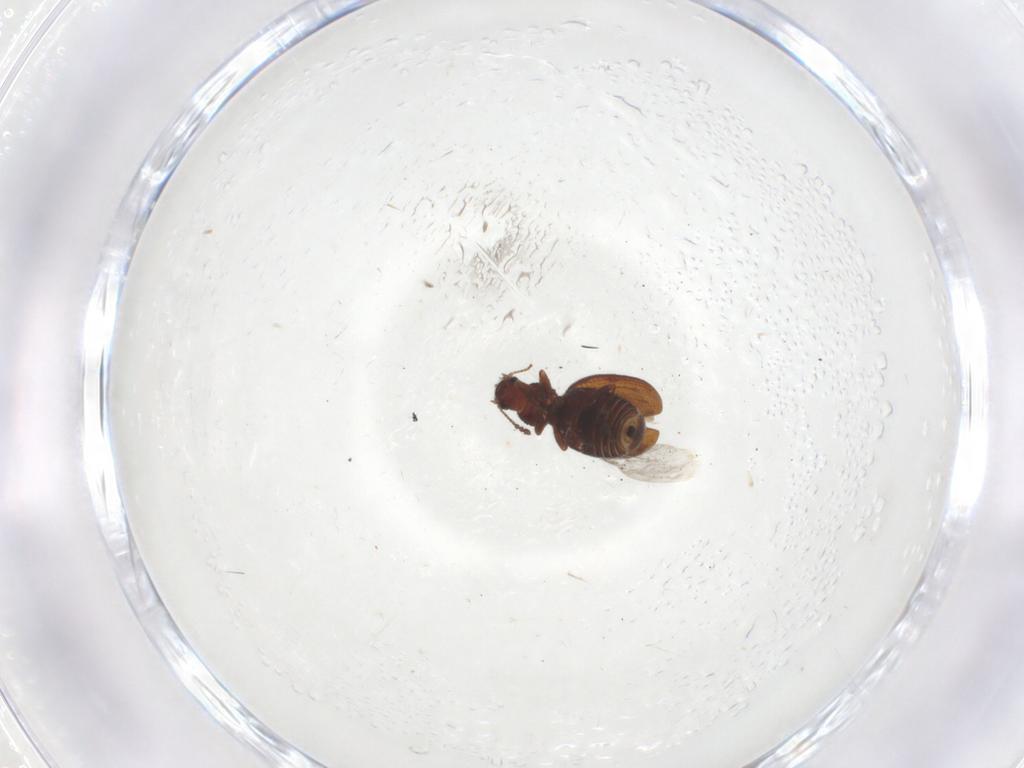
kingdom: Animalia
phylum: Arthropoda
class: Insecta
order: Coleoptera
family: Latridiidae
